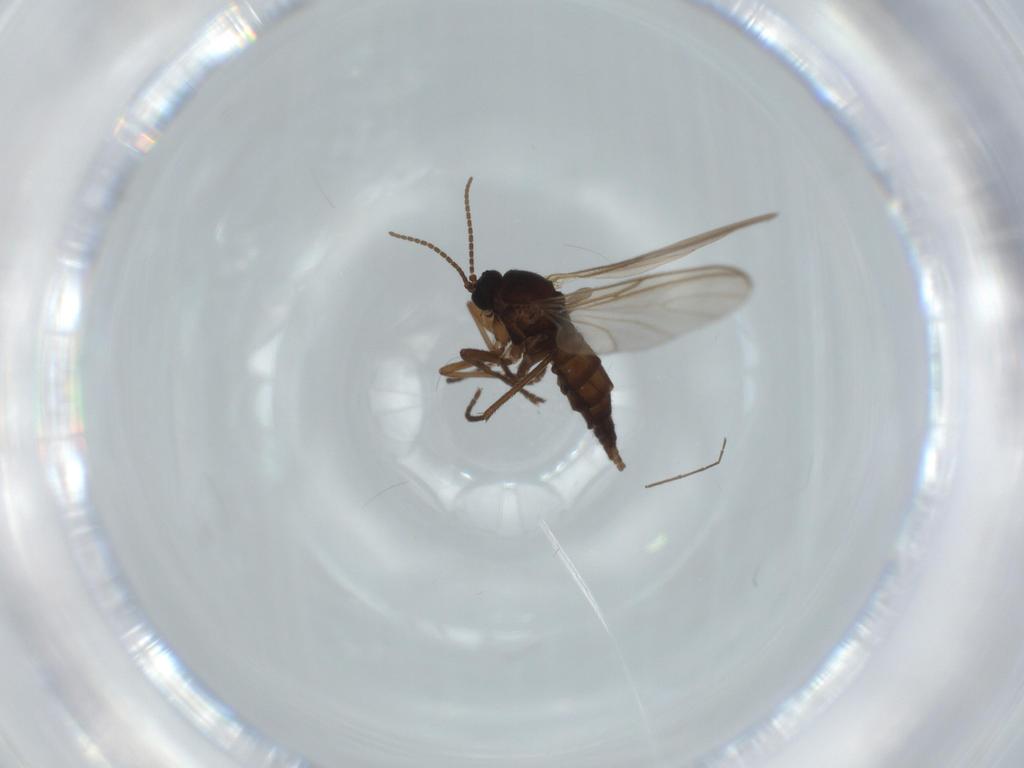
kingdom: Animalia
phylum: Arthropoda
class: Insecta
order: Diptera
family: Sciaridae
